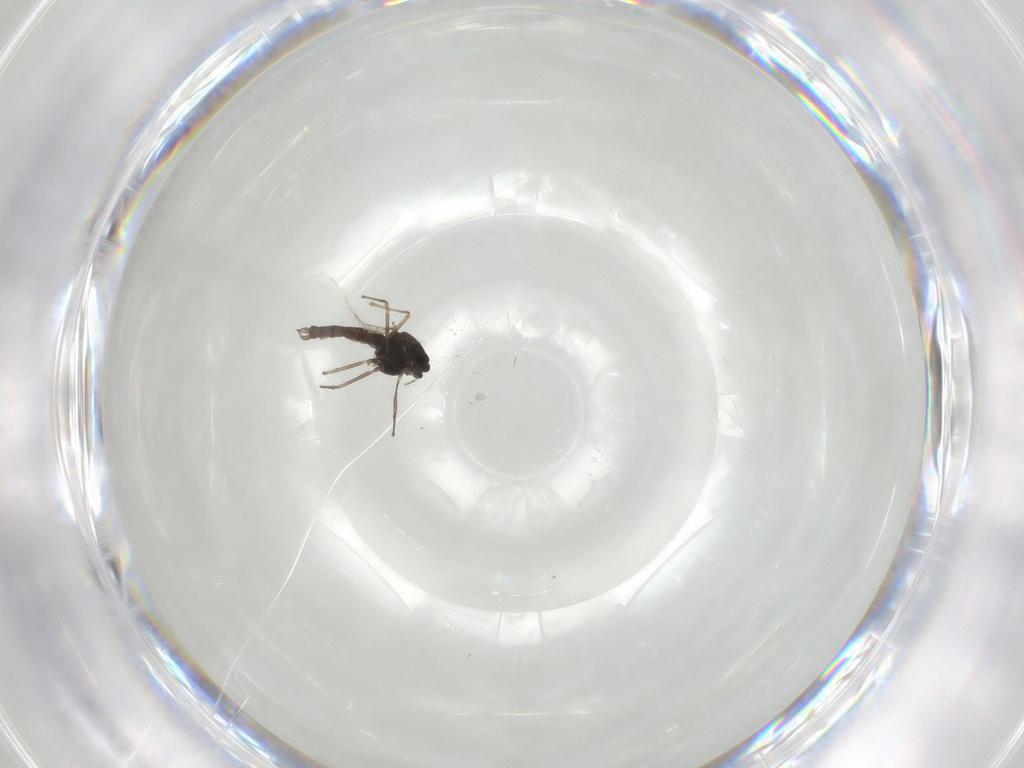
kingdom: Animalia
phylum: Arthropoda
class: Insecta
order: Diptera
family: Chironomidae
